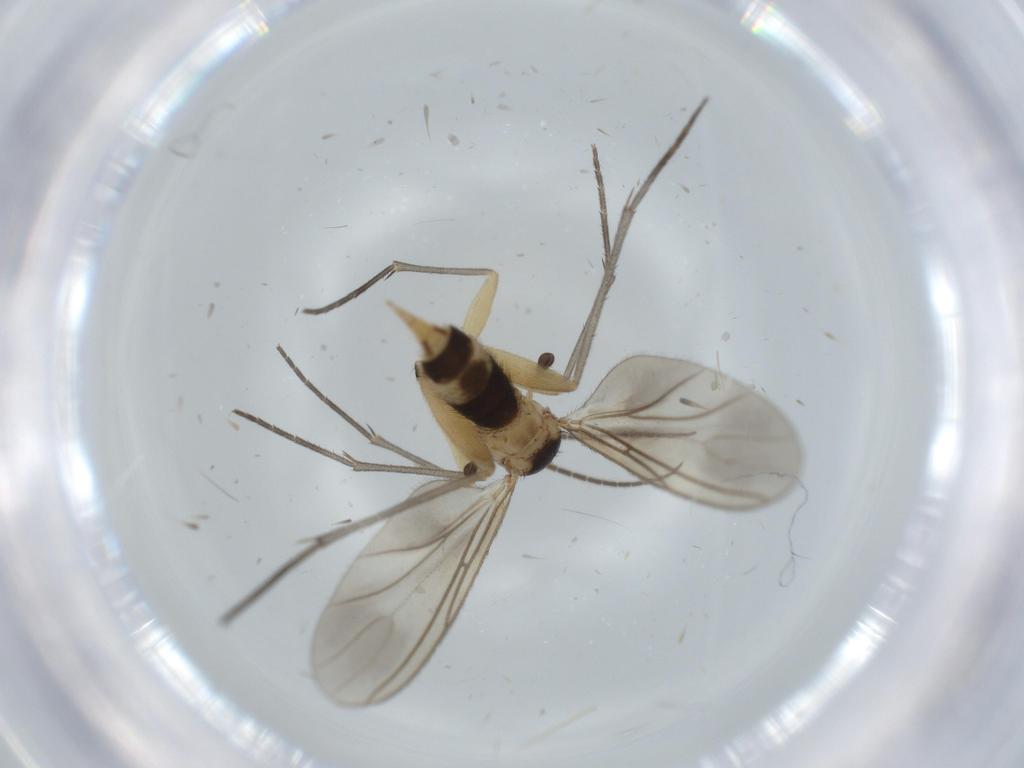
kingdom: Animalia
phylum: Arthropoda
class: Insecta
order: Diptera
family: Sciaridae
